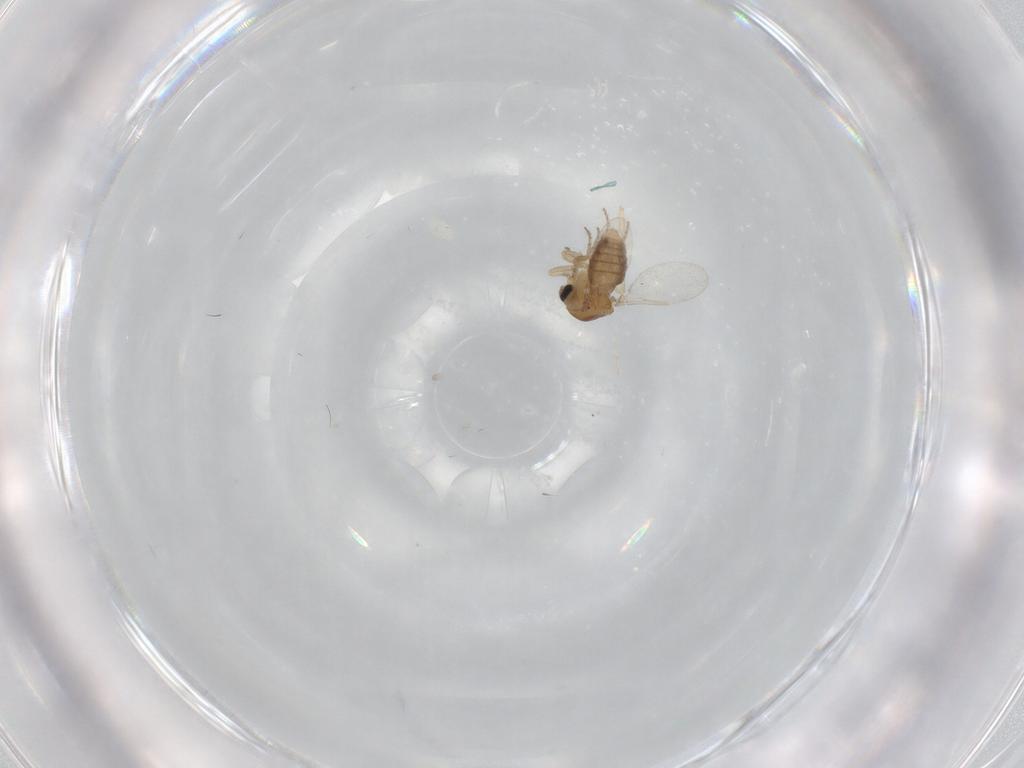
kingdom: Animalia
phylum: Arthropoda
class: Insecta
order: Diptera
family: Ceratopogonidae
